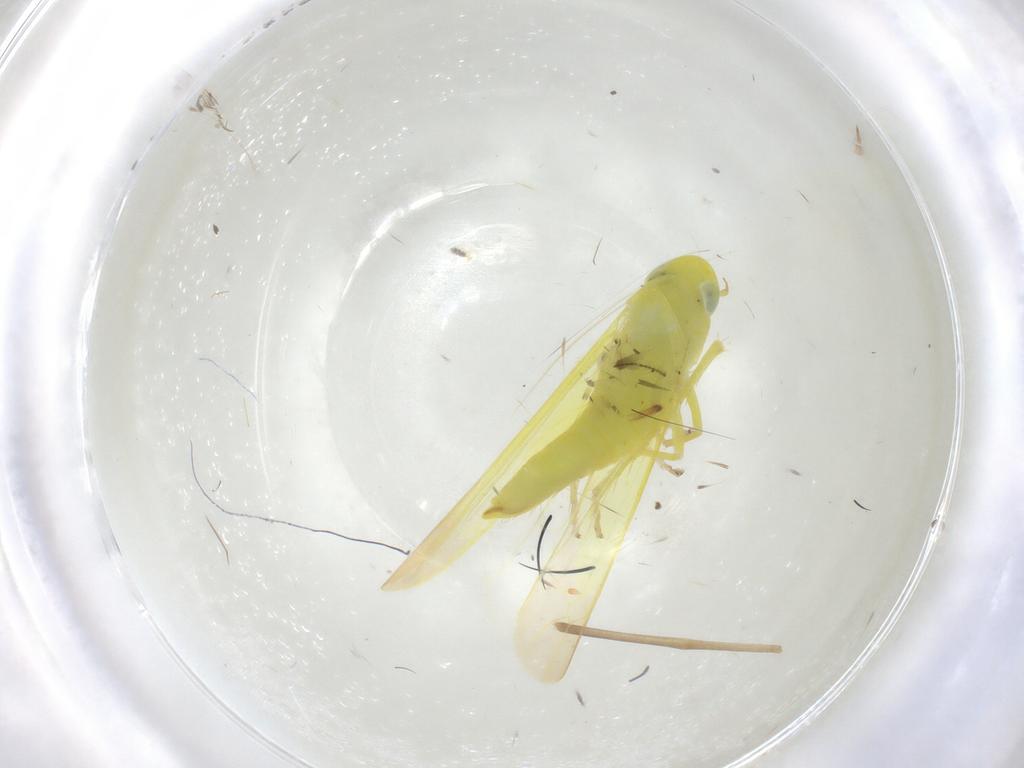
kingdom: Animalia
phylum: Arthropoda
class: Insecta
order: Hemiptera
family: Cicadellidae
